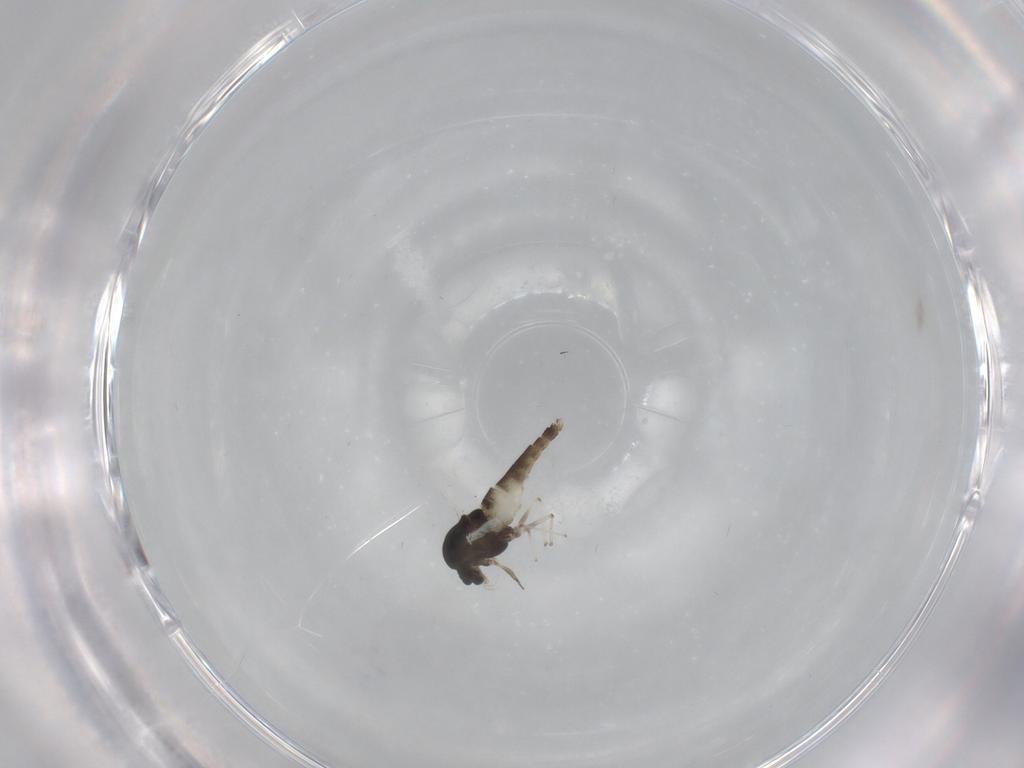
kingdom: Animalia
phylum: Arthropoda
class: Insecta
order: Diptera
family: Chironomidae
